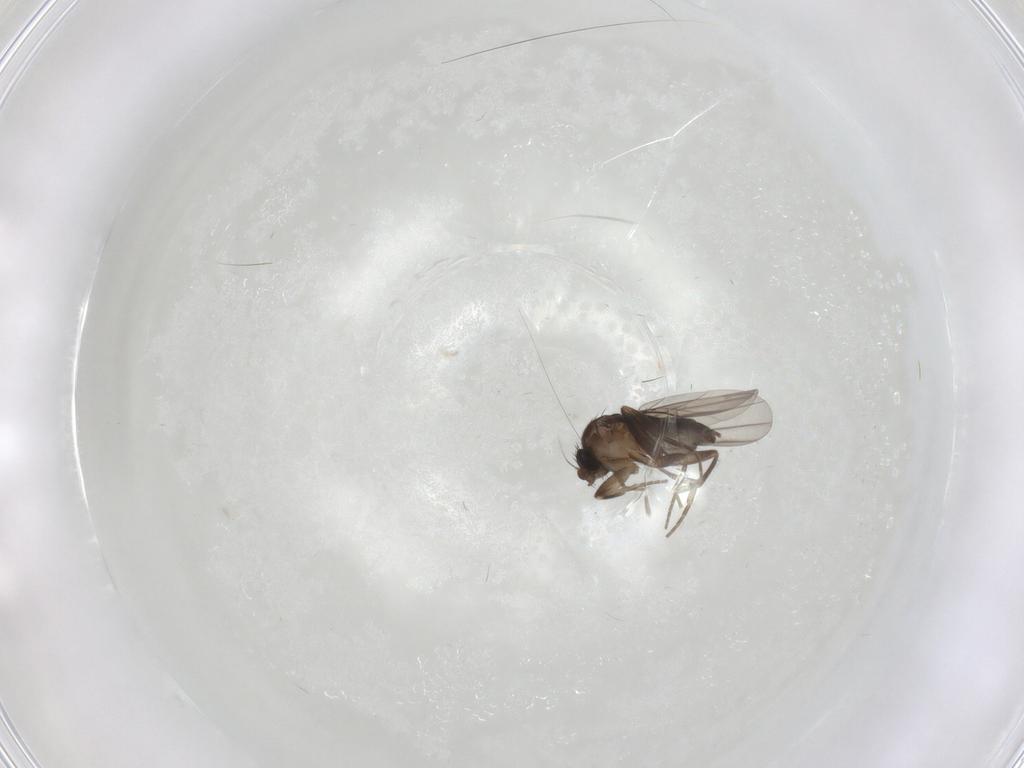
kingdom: Animalia
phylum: Arthropoda
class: Insecta
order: Diptera
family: Phoridae
